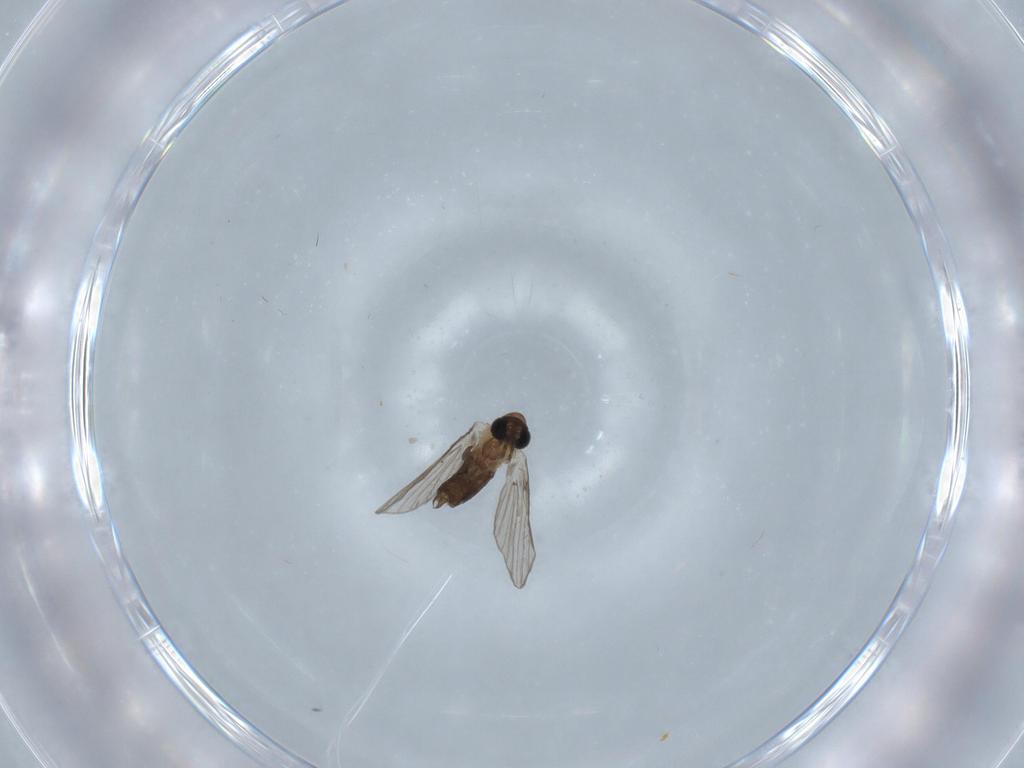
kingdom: Animalia
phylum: Arthropoda
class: Insecta
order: Diptera
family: Psychodidae
